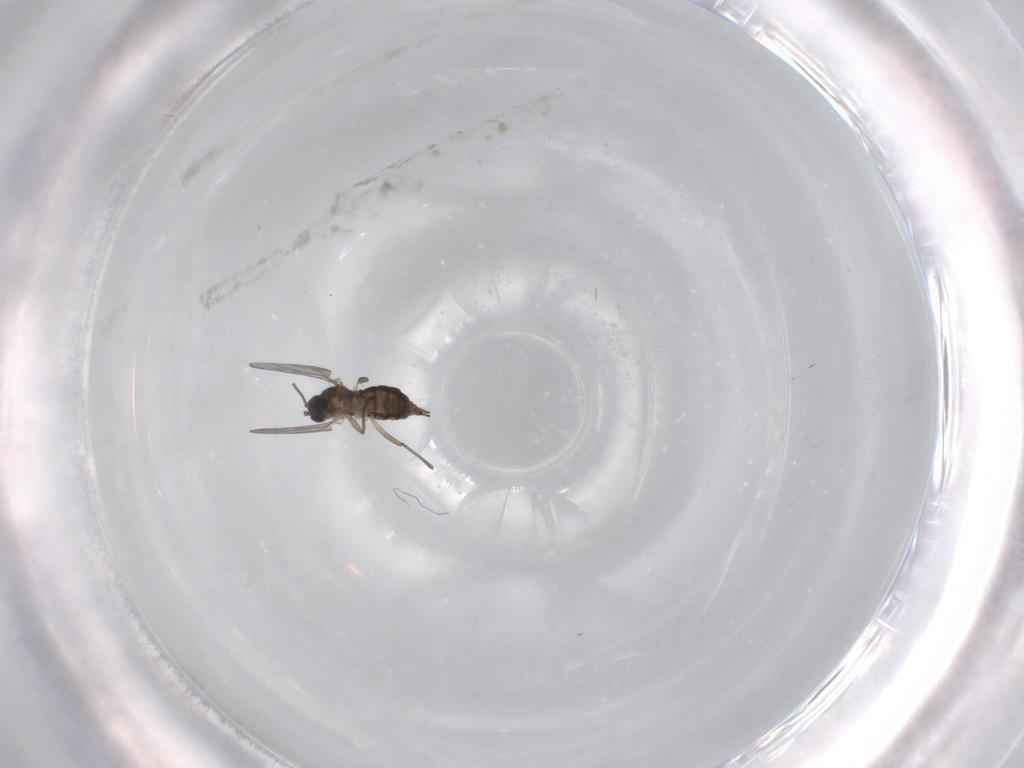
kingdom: Animalia
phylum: Arthropoda
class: Insecta
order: Diptera
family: Sciaridae
